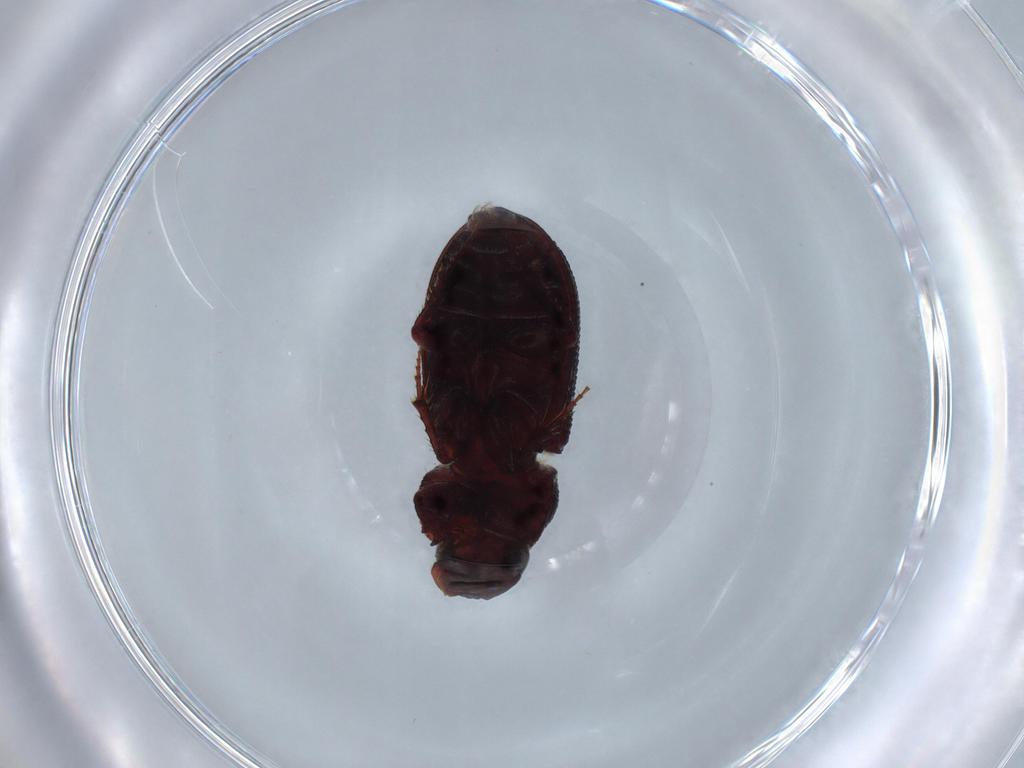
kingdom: Animalia
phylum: Arthropoda
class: Insecta
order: Coleoptera
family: Scarabaeidae
